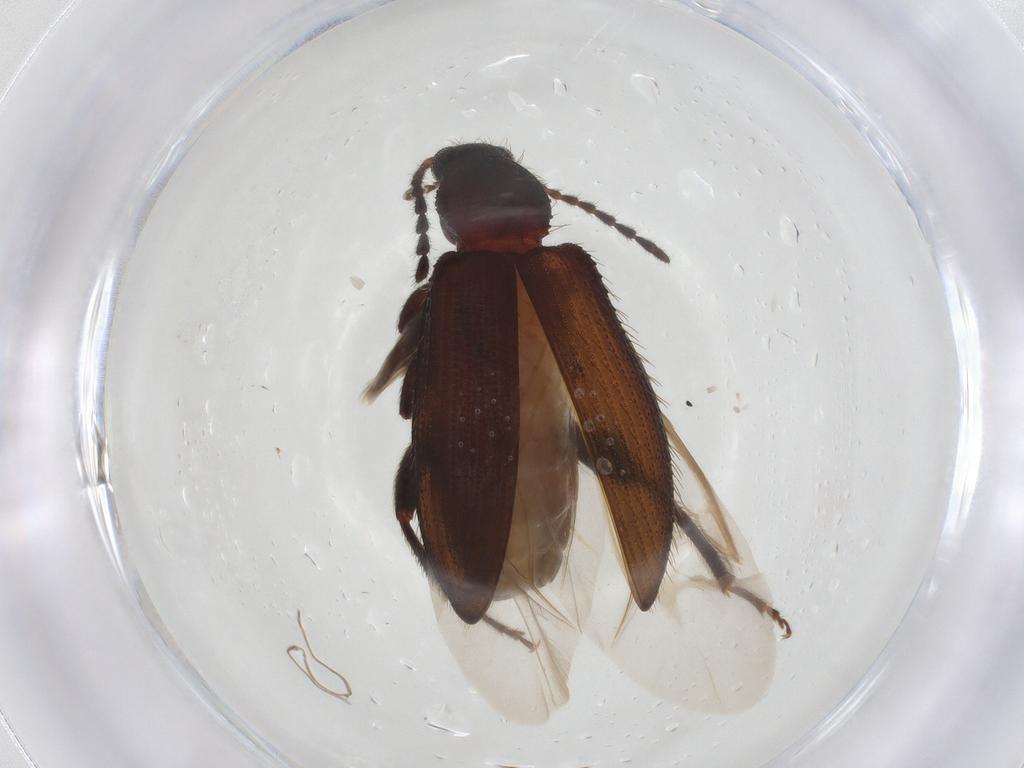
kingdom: Animalia
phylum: Arthropoda
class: Insecta
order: Coleoptera
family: Tenebrionidae
